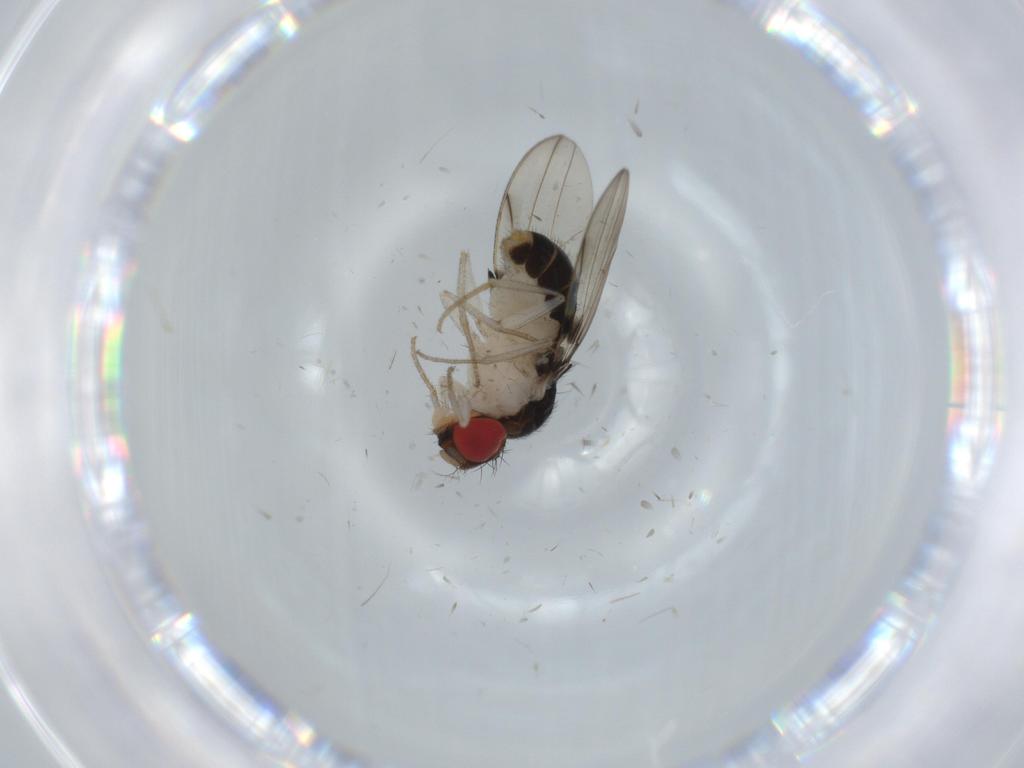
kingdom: Animalia
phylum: Arthropoda
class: Insecta
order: Diptera
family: Drosophilidae
